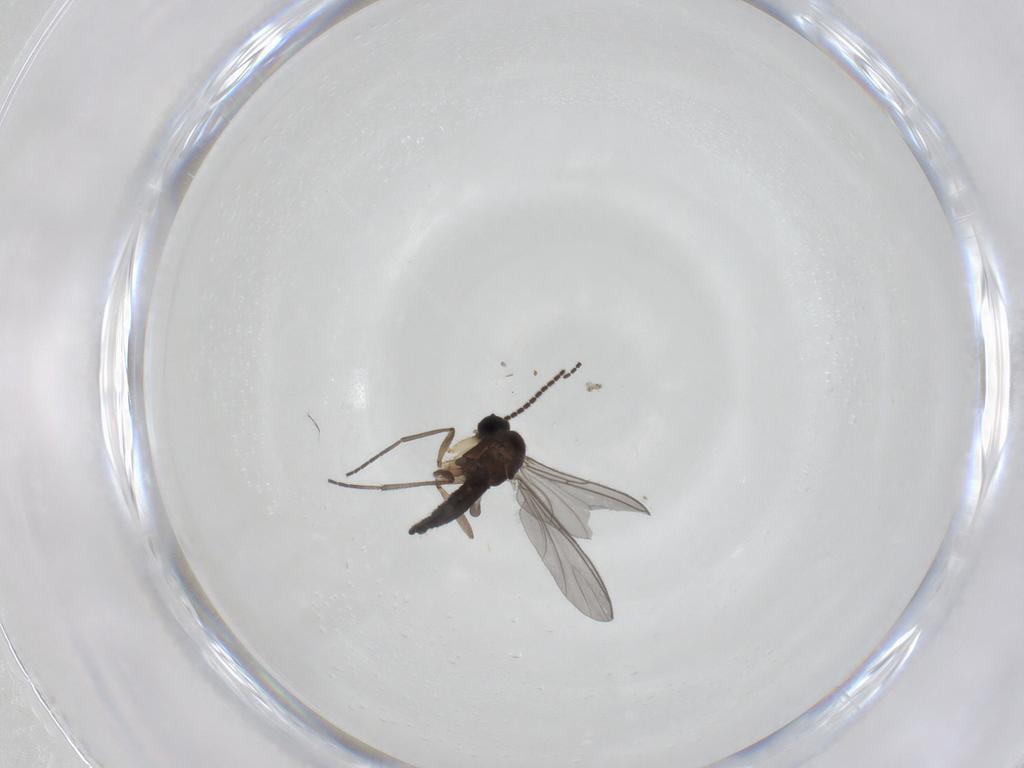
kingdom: Animalia
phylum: Arthropoda
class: Insecta
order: Diptera
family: Sciaridae
